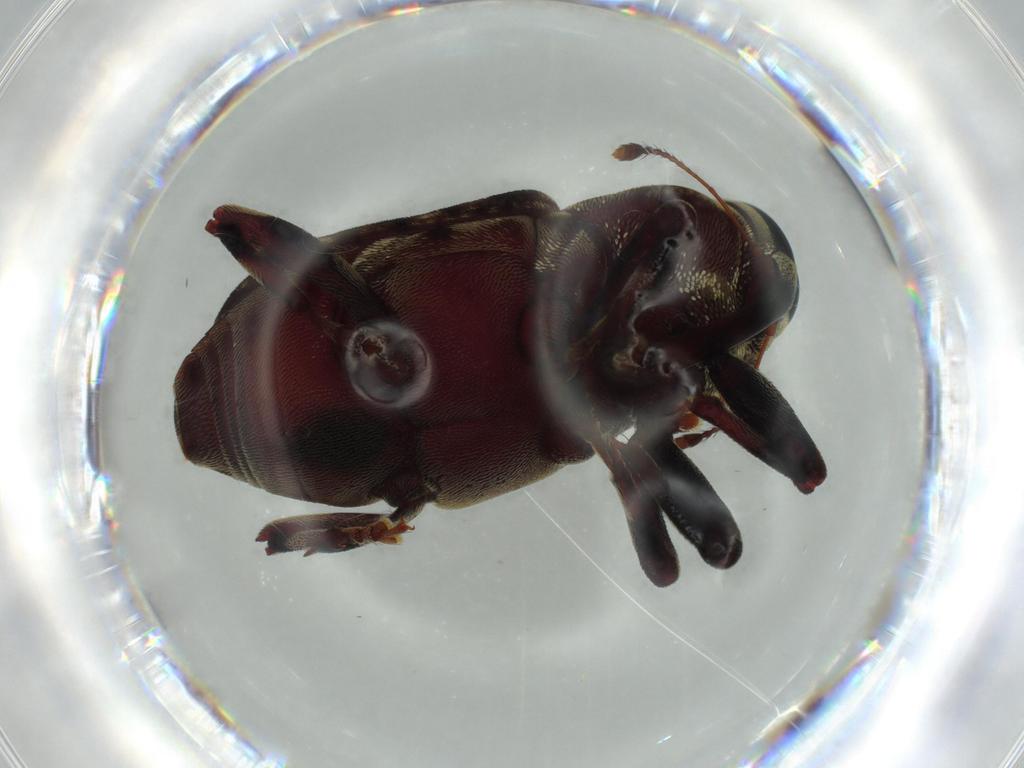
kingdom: Animalia
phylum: Arthropoda
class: Insecta
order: Coleoptera
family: Curculionidae
